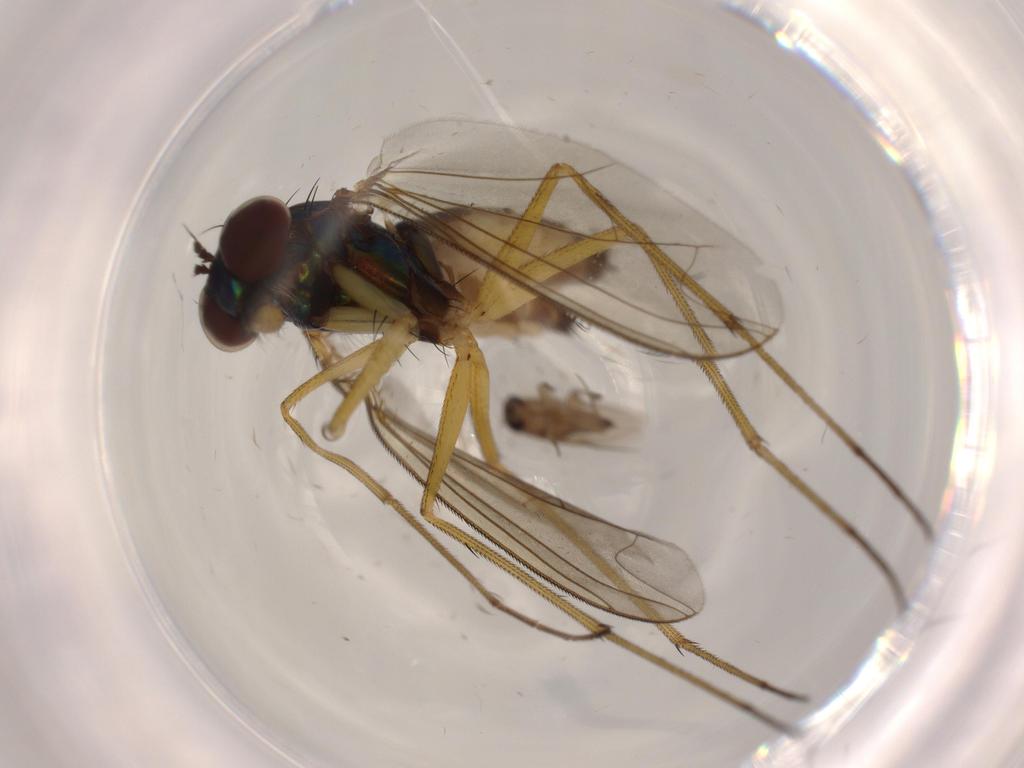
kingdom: Animalia
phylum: Arthropoda
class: Insecta
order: Diptera
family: Dolichopodidae
